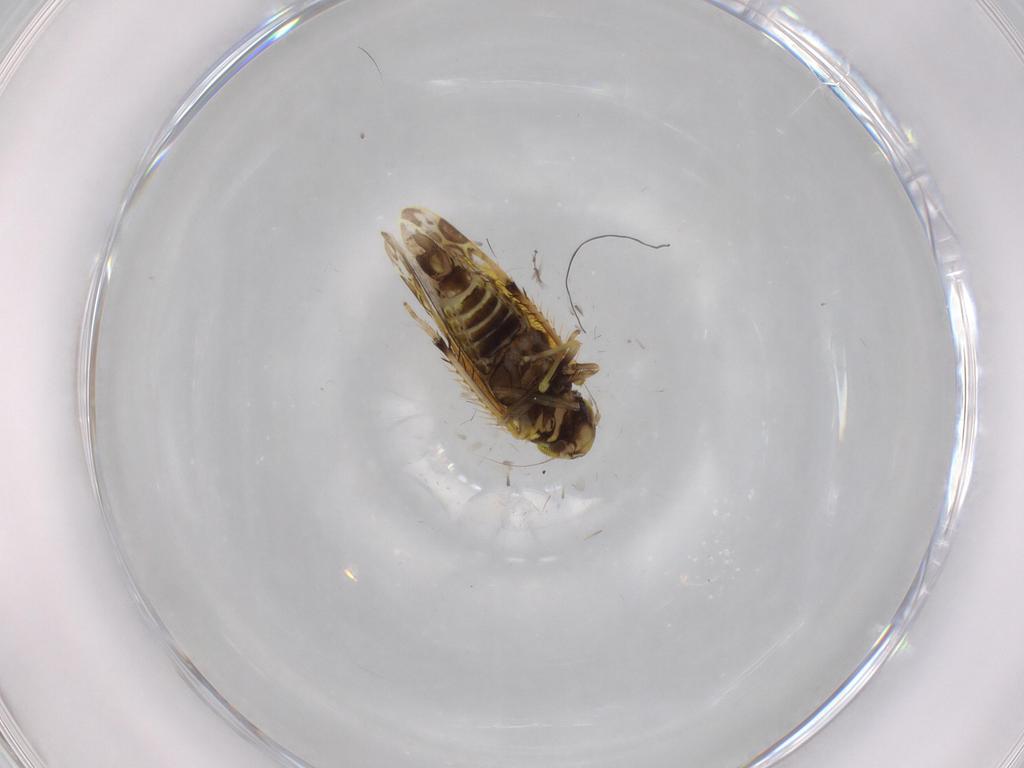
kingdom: Animalia
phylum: Arthropoda
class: Insecta
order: Hemiptera
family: Cicadellidae
